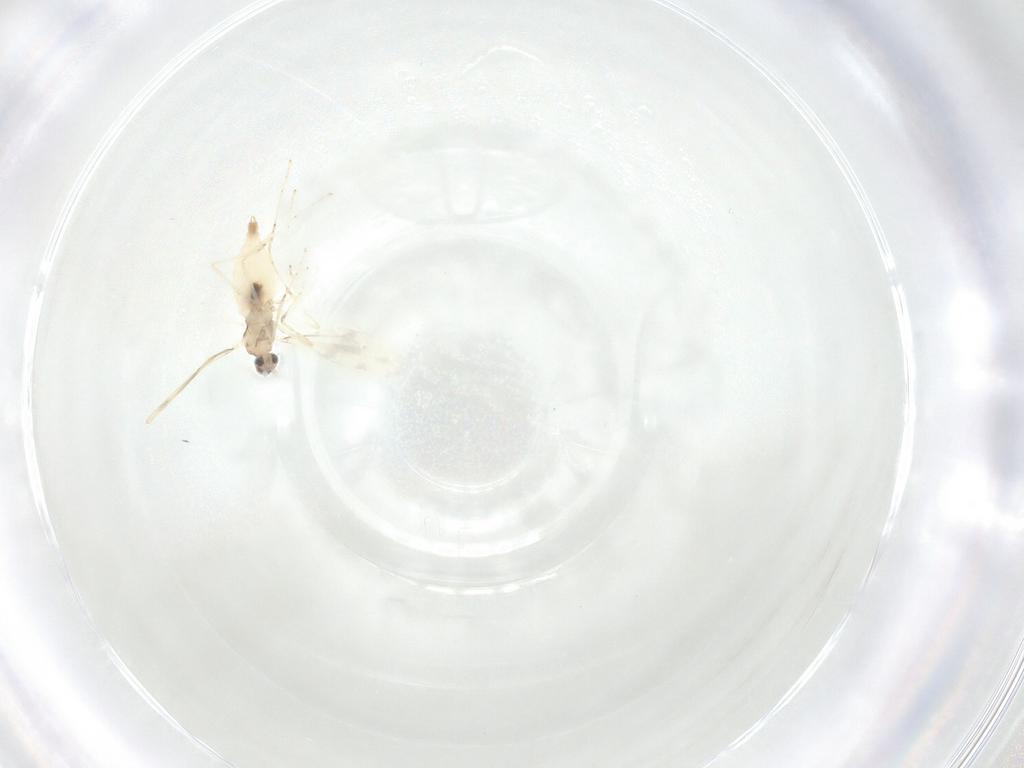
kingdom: Animalia
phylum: Arthropoda
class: Insecta
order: Diptera
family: Cecidomyiidae
